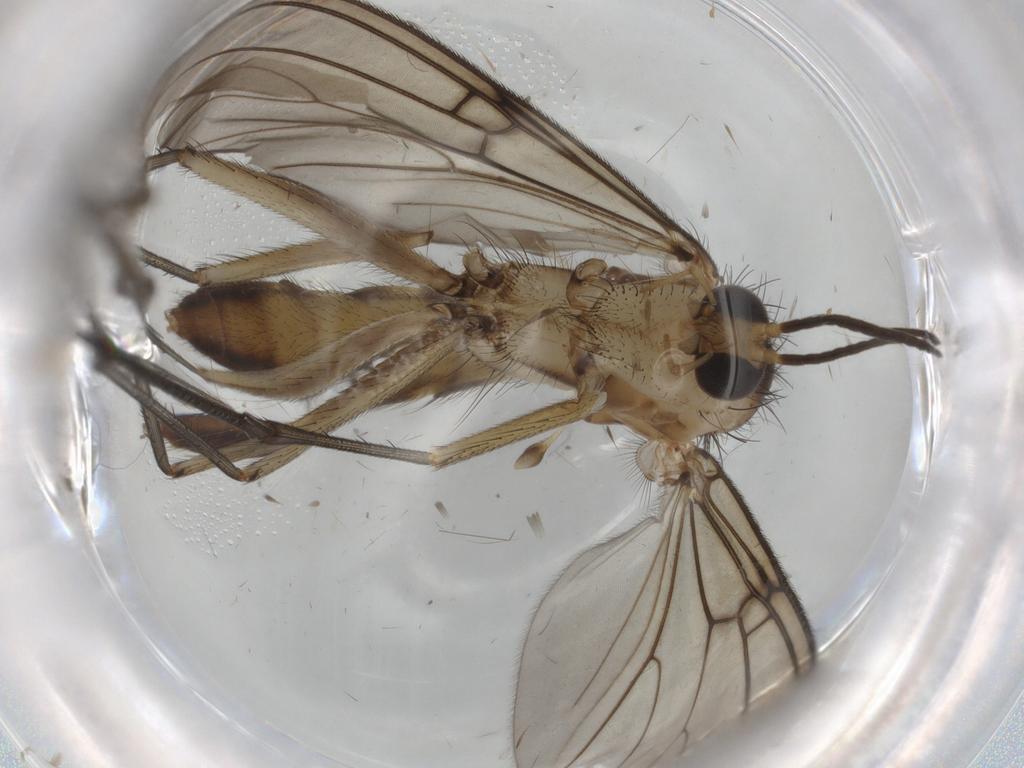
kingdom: Animalia
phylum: Arthropoda
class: Insecta
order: Diptera
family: Mycetophilidae
